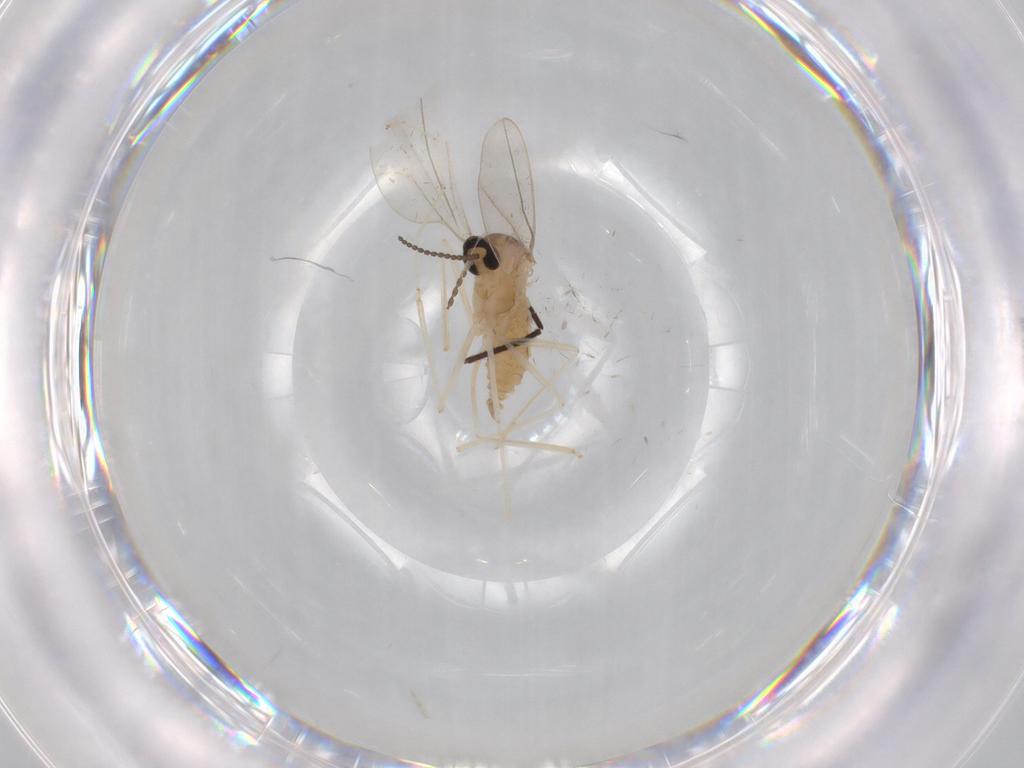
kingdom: Animalia
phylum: Arthropoda
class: Insecta
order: Diptera
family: Cecidomyiidae
